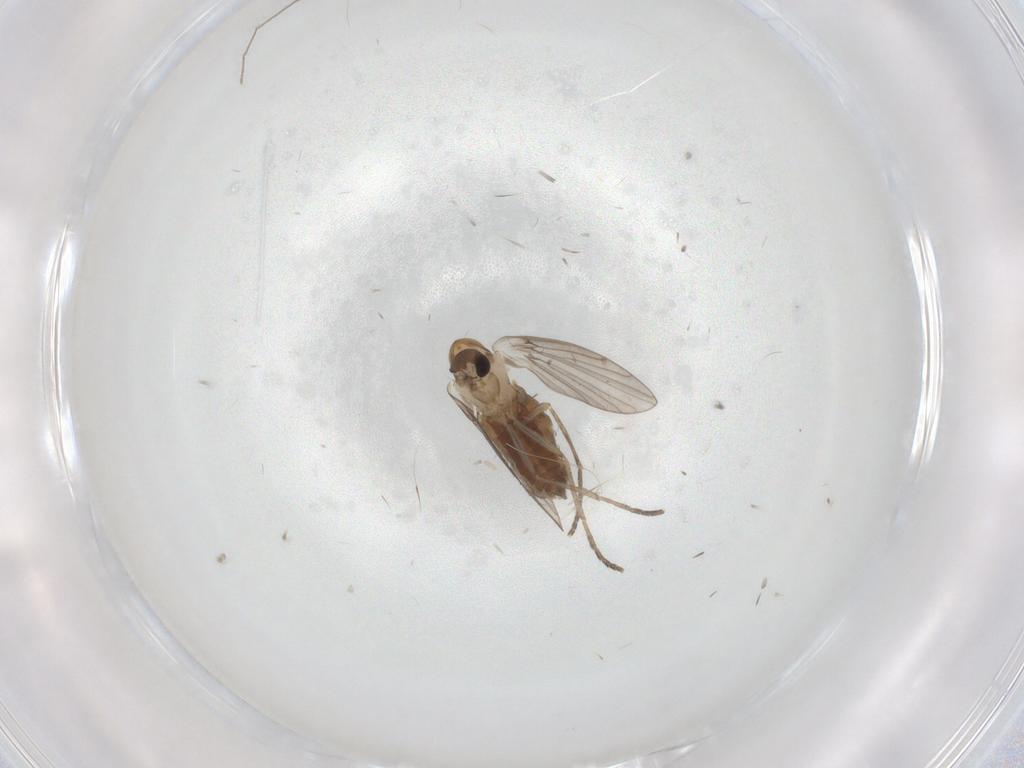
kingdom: Animalia
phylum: Arthropoda
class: Insecta
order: Diptera
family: Psychodidae
